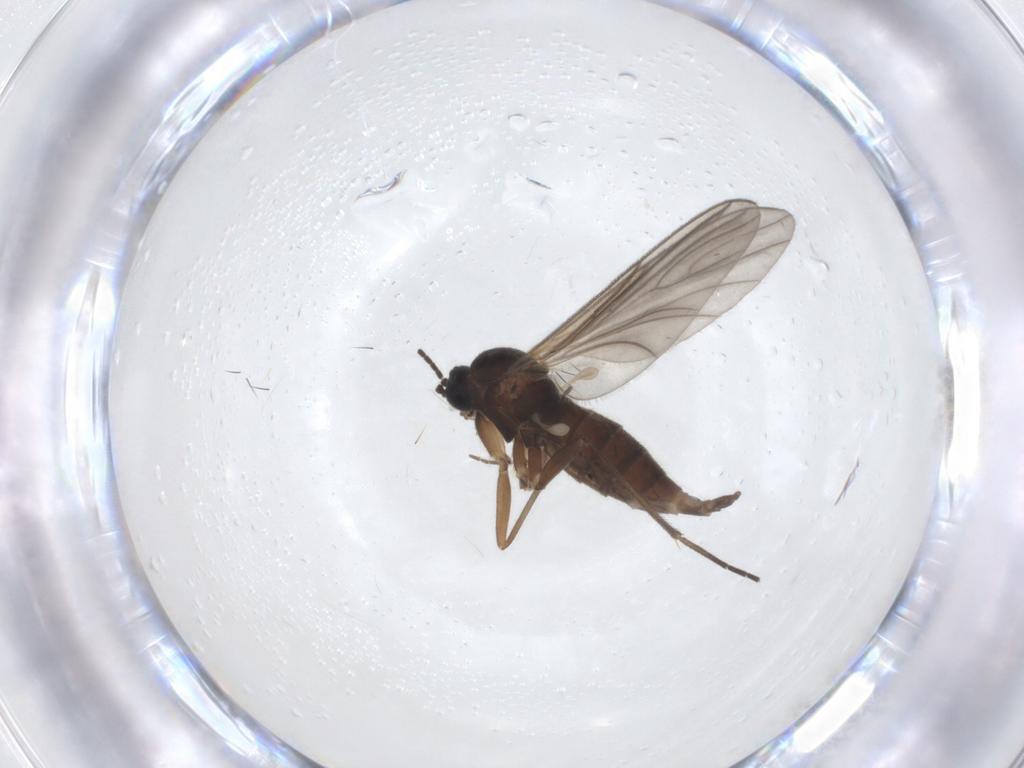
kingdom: Animalia
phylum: Arthropoda
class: Insecta
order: Diptera
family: Sciaridae
